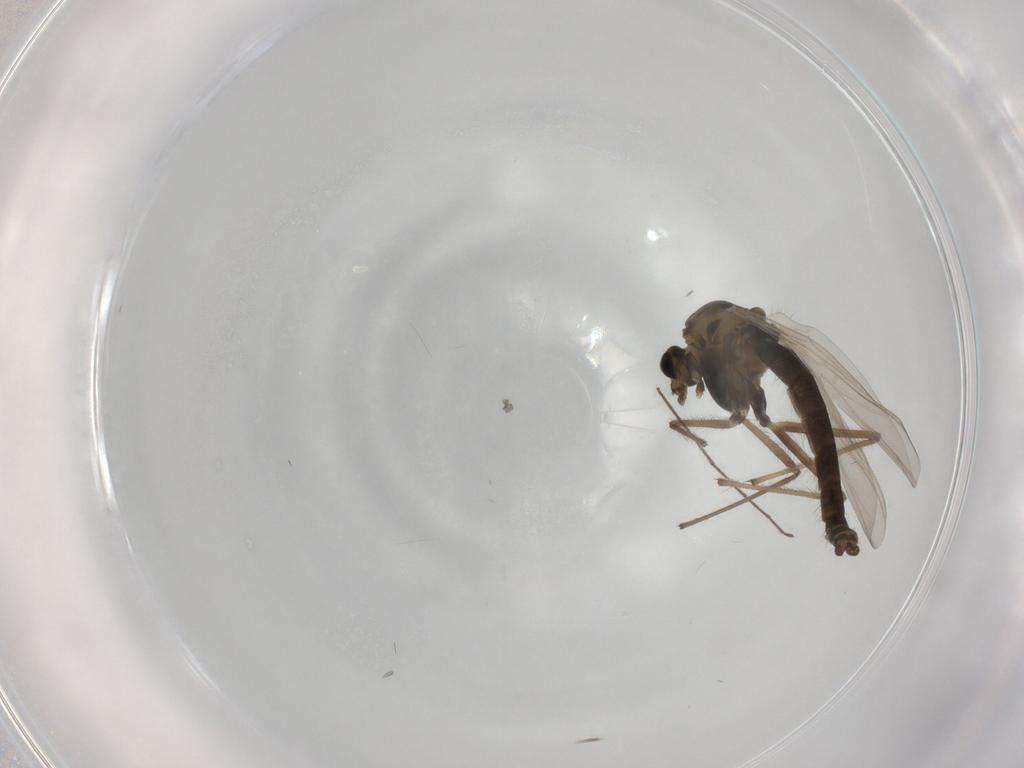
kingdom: Animalia
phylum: Arthropoda
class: Insecta
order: Diptera
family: Chironomidae
